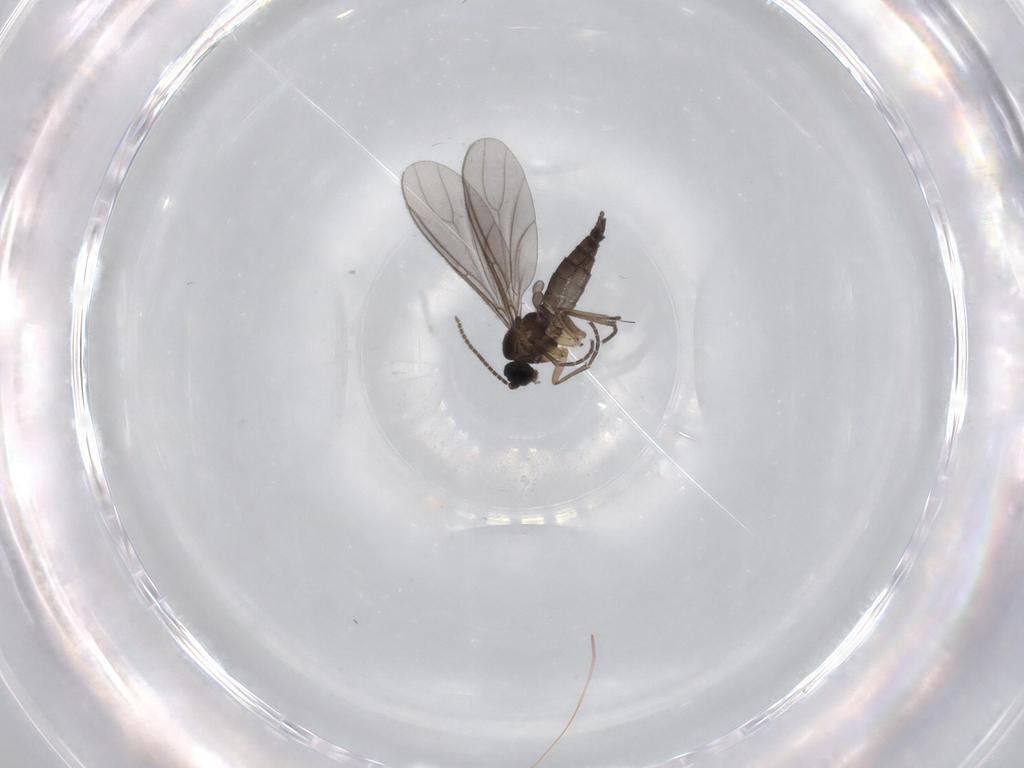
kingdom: Animalia
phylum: Arthropoda
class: Insecta
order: Diptera
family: Sciaridae
